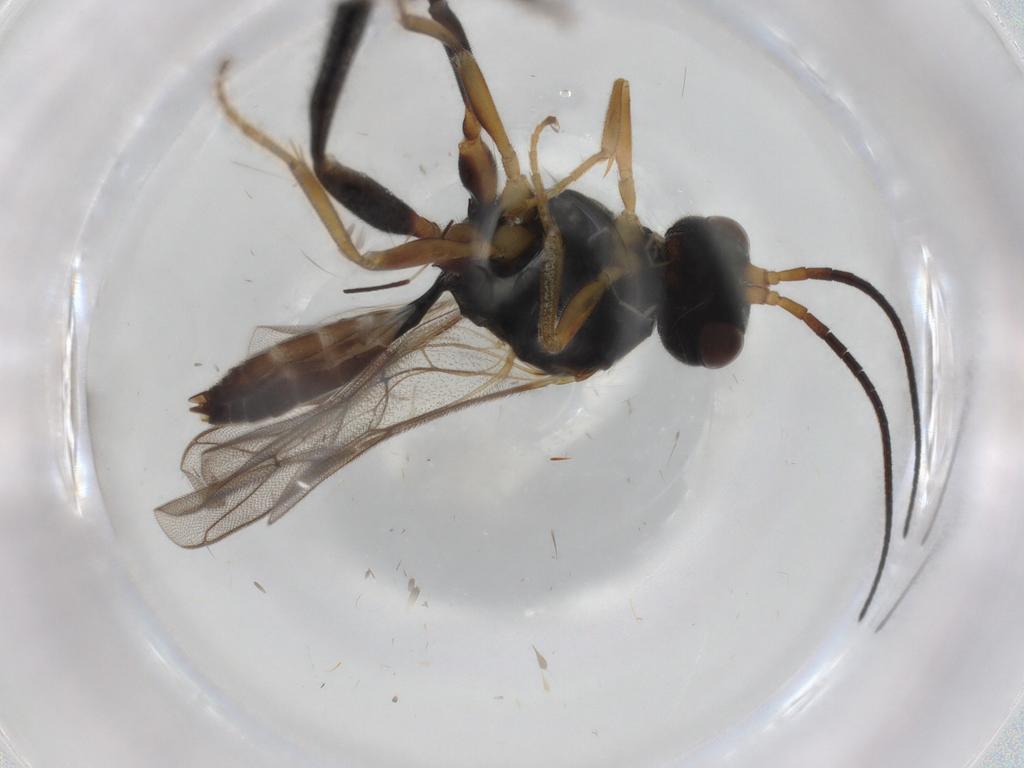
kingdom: Animalia
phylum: Arthropoda
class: Insecta
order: Hymenoptera
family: Ichneumonidae
